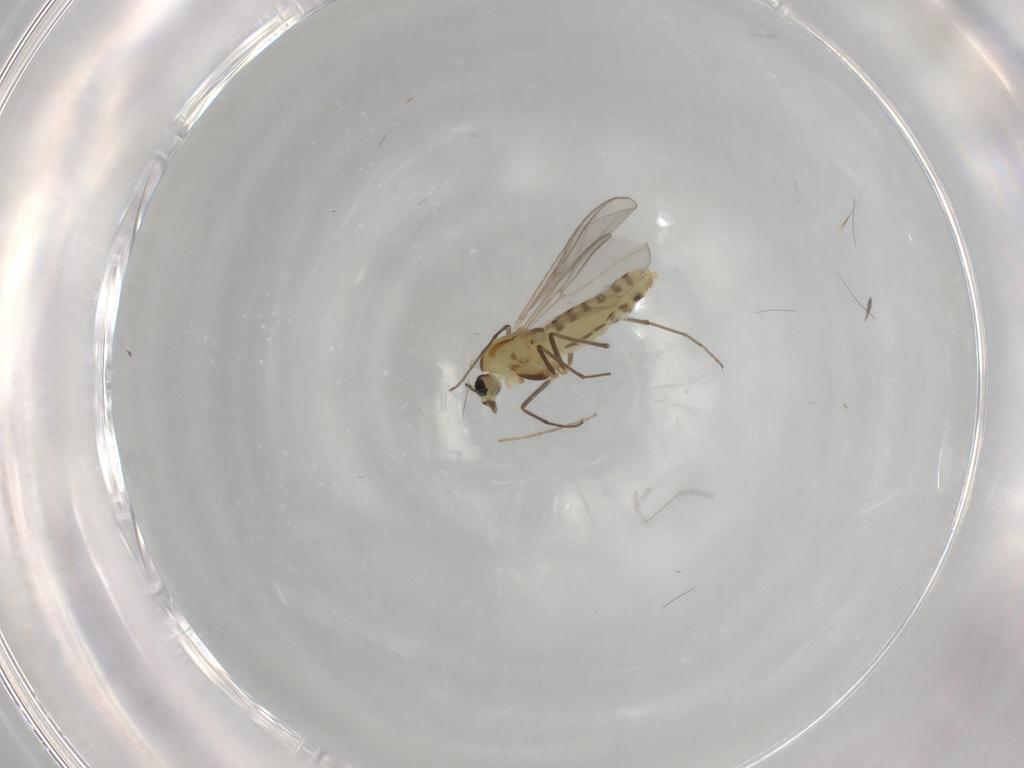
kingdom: Animalia
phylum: Arthropoda
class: Insecta
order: Diptera
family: Chironomidae
